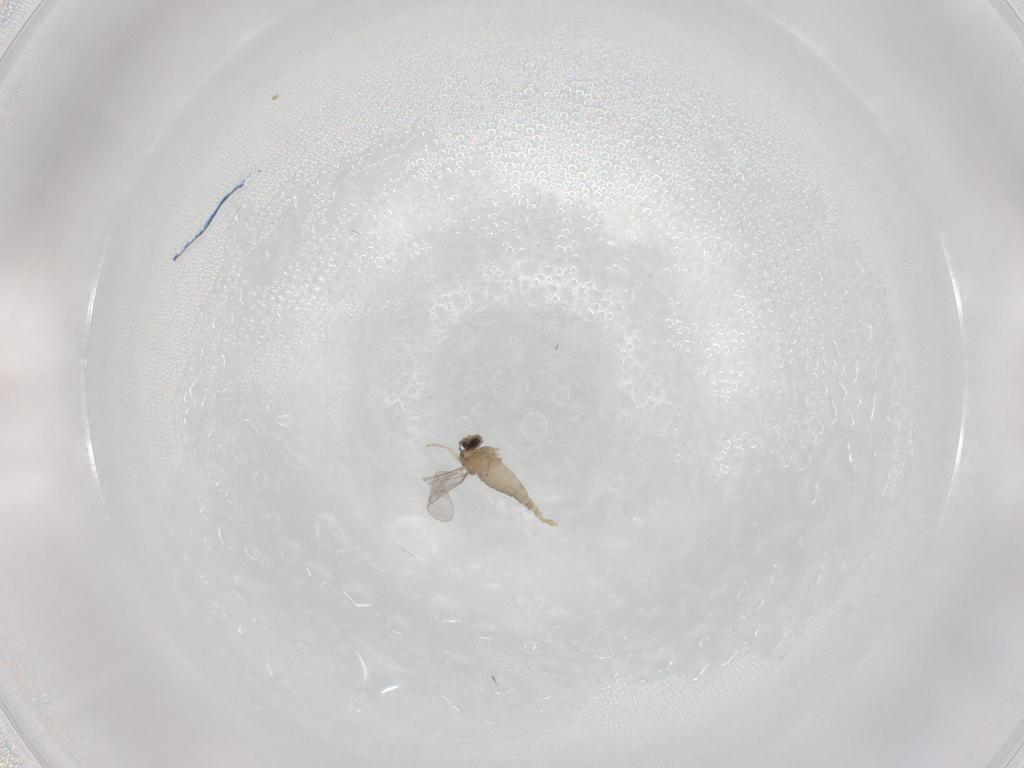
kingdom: Animalia
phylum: Arthropoda
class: Insecta
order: Diptera
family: Cecidomyiidae
